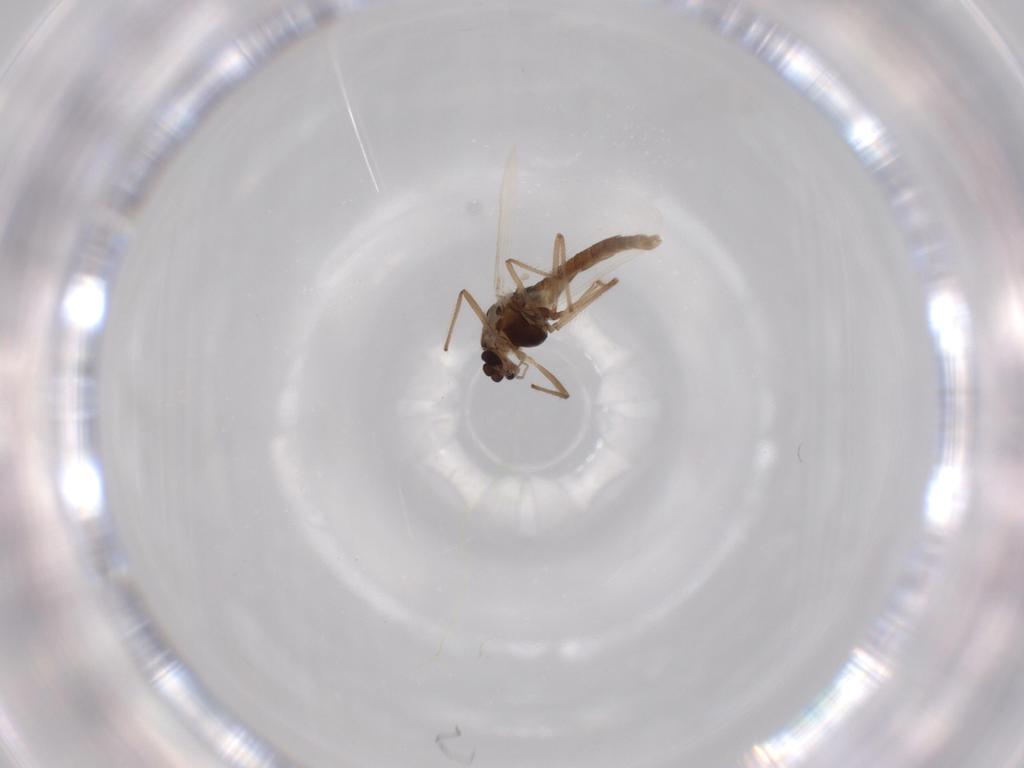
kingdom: Animalia
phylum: Arthropoda
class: Insecta
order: Diptera
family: Chironomidae
